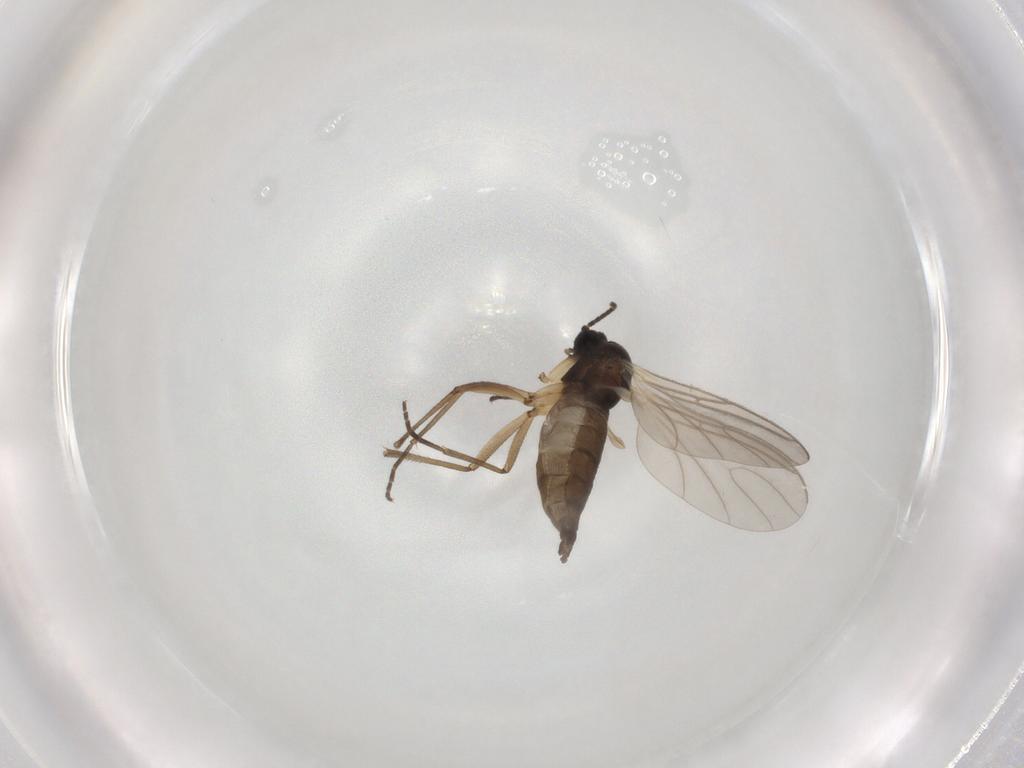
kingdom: Animalia
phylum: Arthropoda
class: Insecta
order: Diptera
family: Sciaridae
